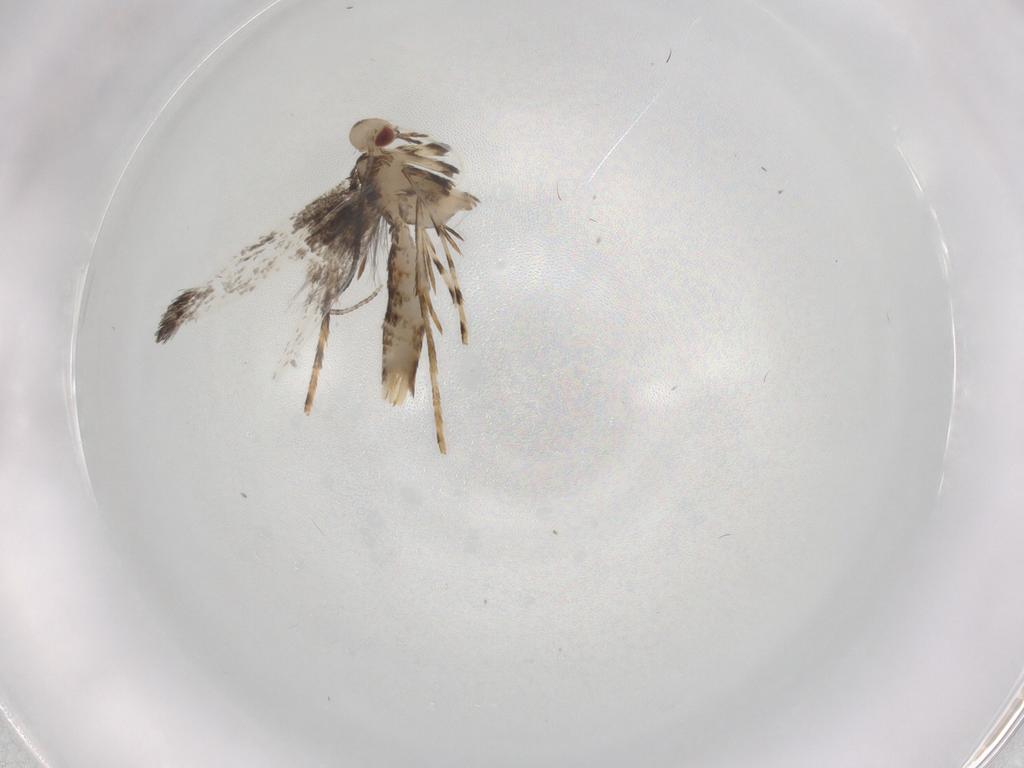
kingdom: Animalia
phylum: Arthropoda
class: Insecta
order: Lepidoptera
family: Gracillariidae
